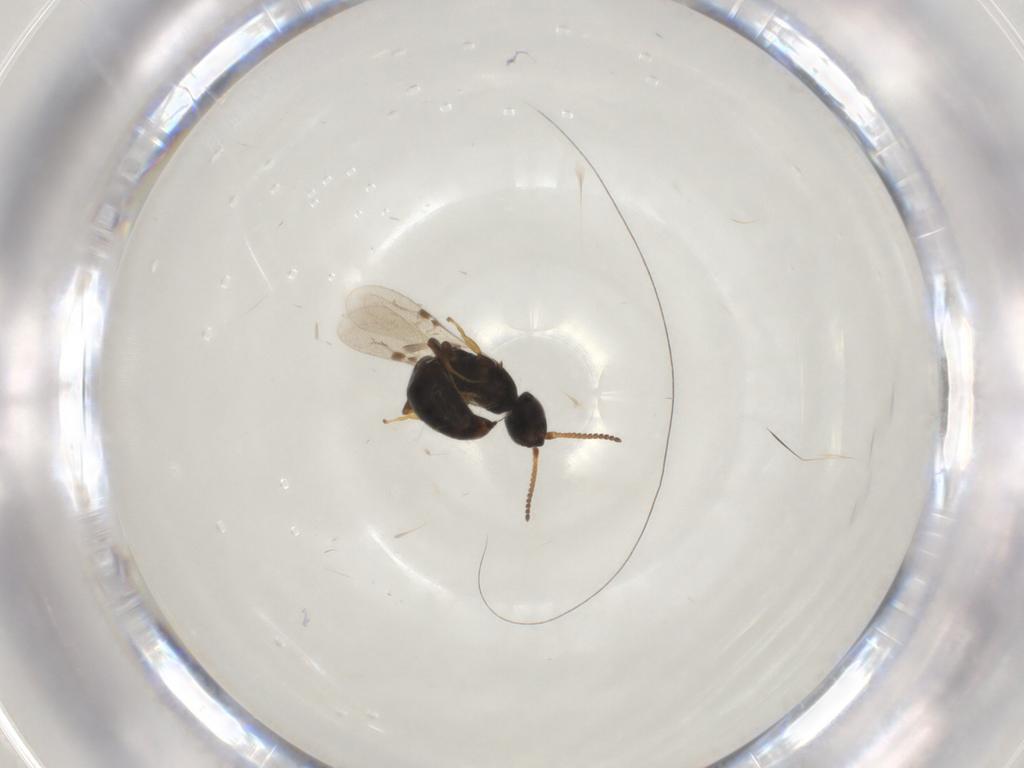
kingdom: Animalia
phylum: Arthropoda
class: Insecta
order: Hymenoptera
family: Bethylidae
